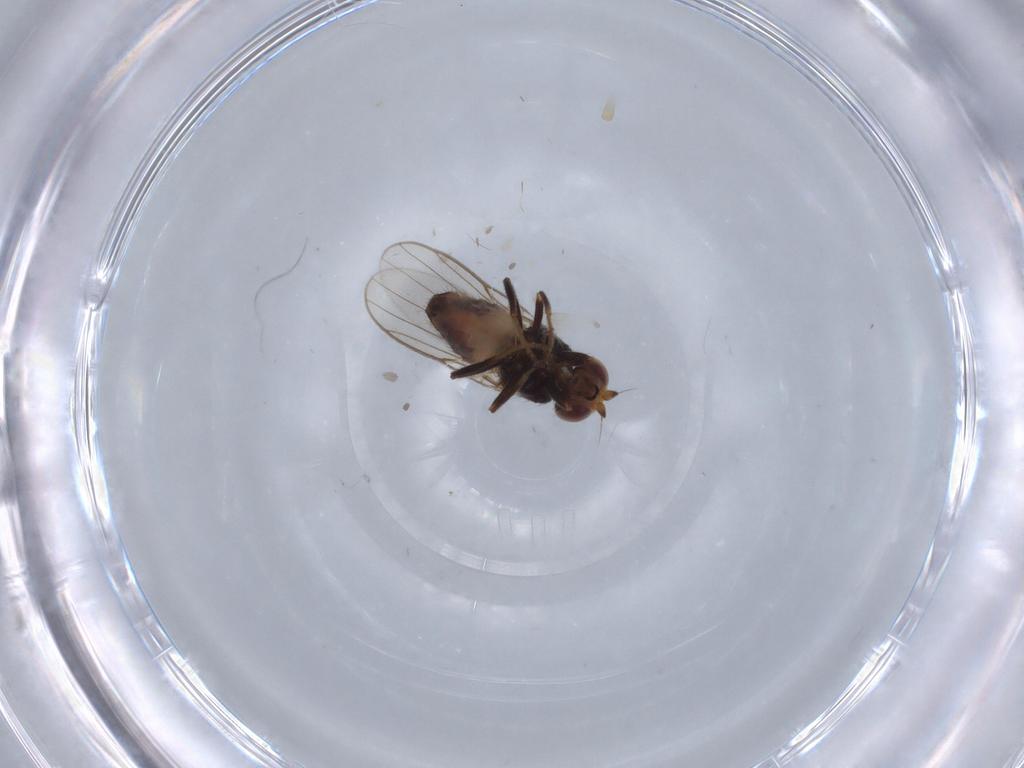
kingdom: Animalia
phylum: Arthropoda
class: Insecta
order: Diptera
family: Chloropidae
